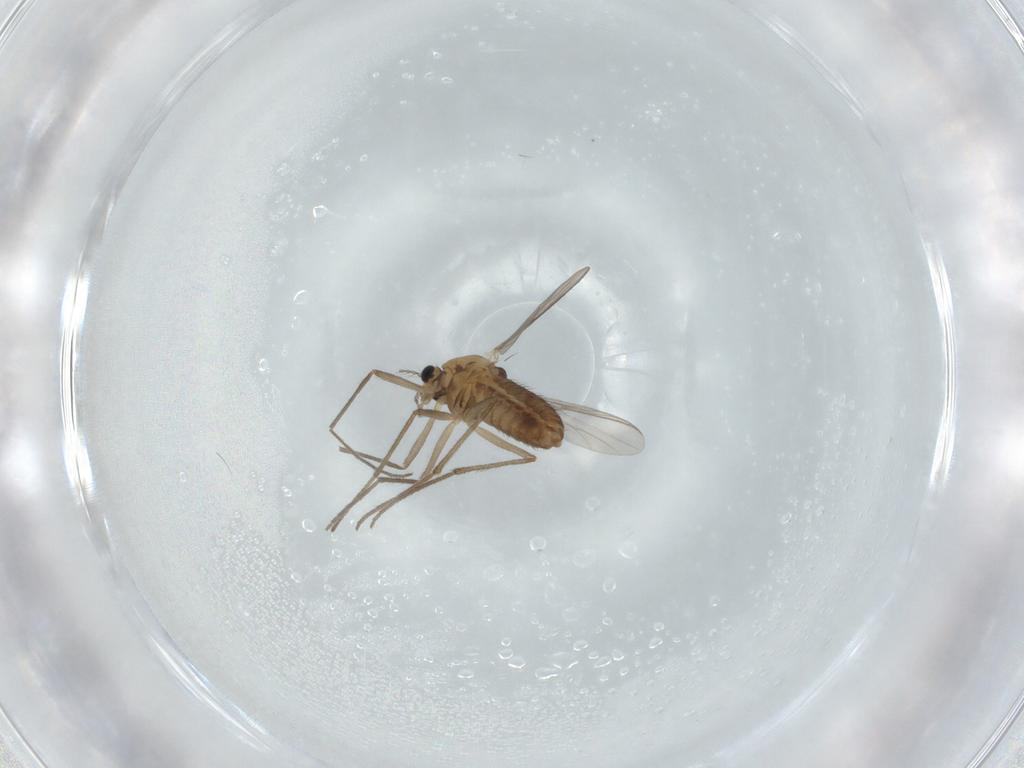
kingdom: Animalia
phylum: Arthropoda
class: Insecta
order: Diptera
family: Chironomidae
